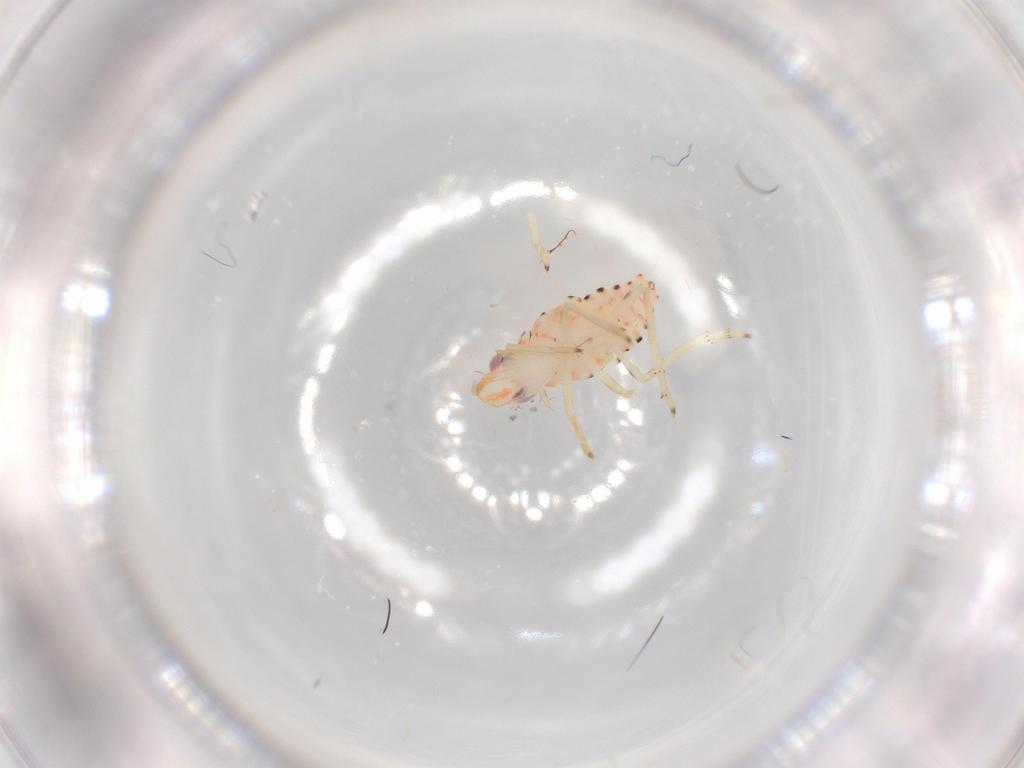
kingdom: Animalia
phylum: Arthropoda
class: Insecta
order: Hemiptera
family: Tropiduchidae
